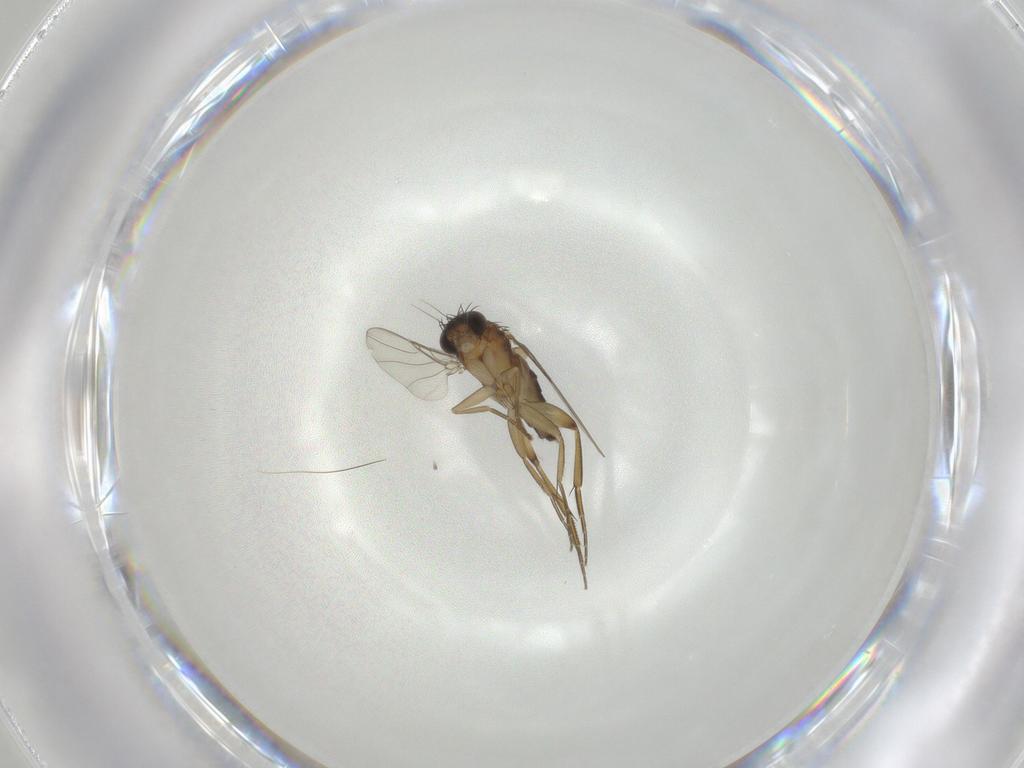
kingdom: Animalia
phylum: Arthropoda
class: Insecta
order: Diptera
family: Phoridae
